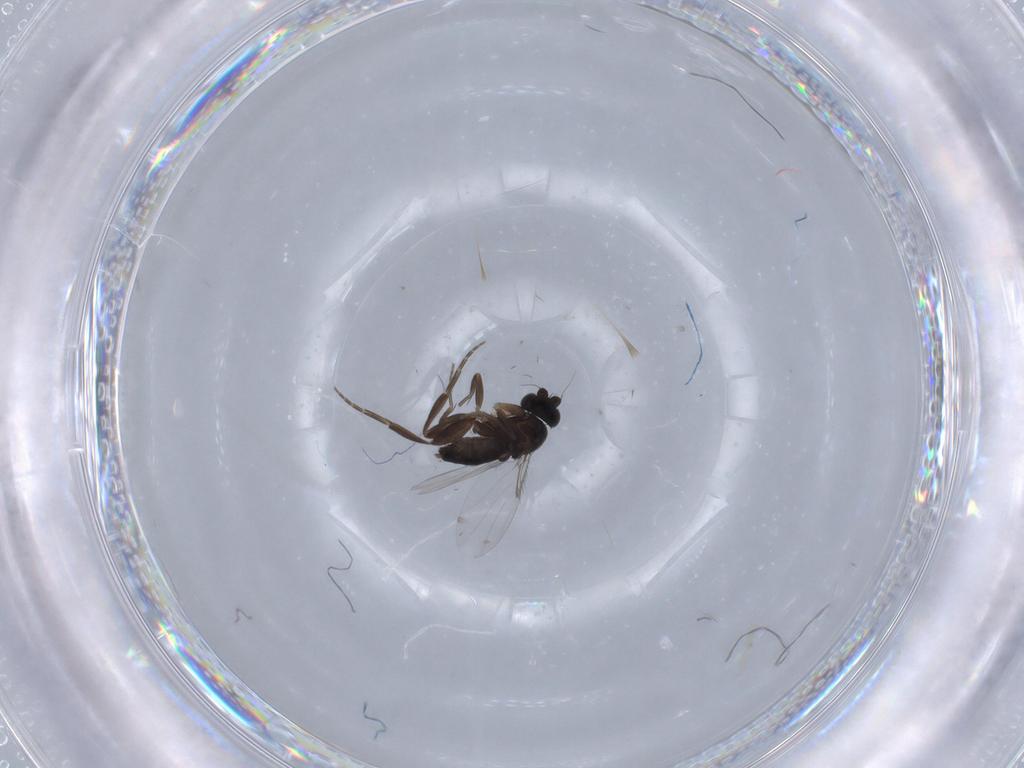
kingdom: Animalia
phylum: Arthropoda
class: Insecta
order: Diptera
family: Phoridae
